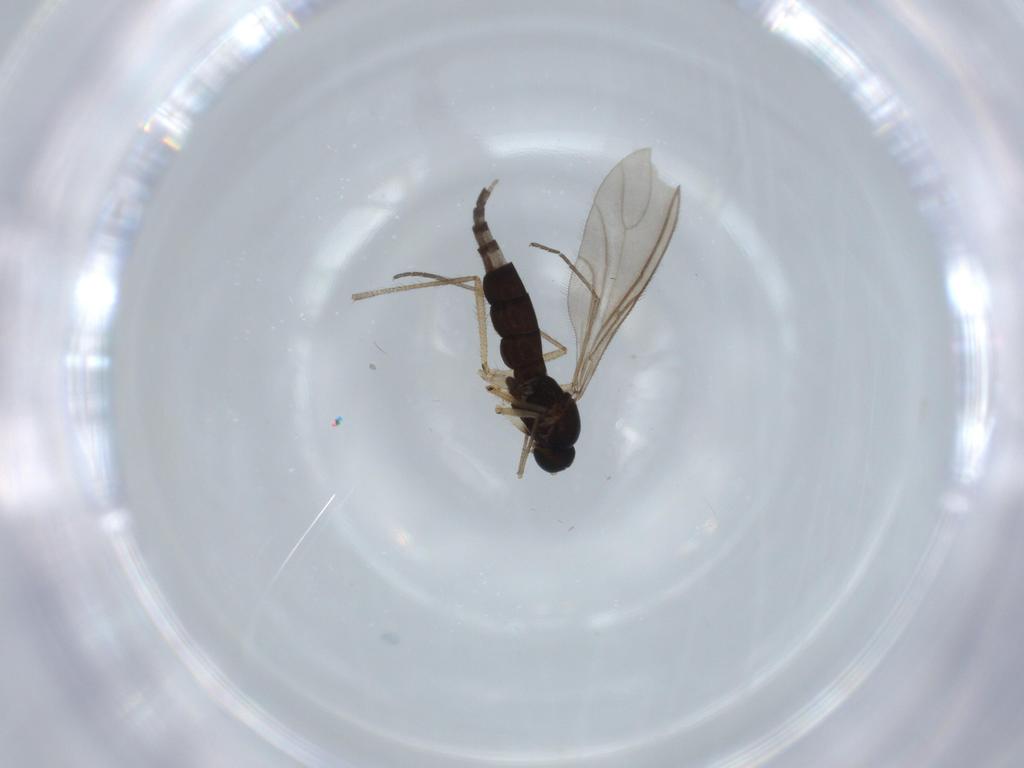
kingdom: Animalia
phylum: Arthropoda
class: Insecta
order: Diptera
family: Sciaridae
